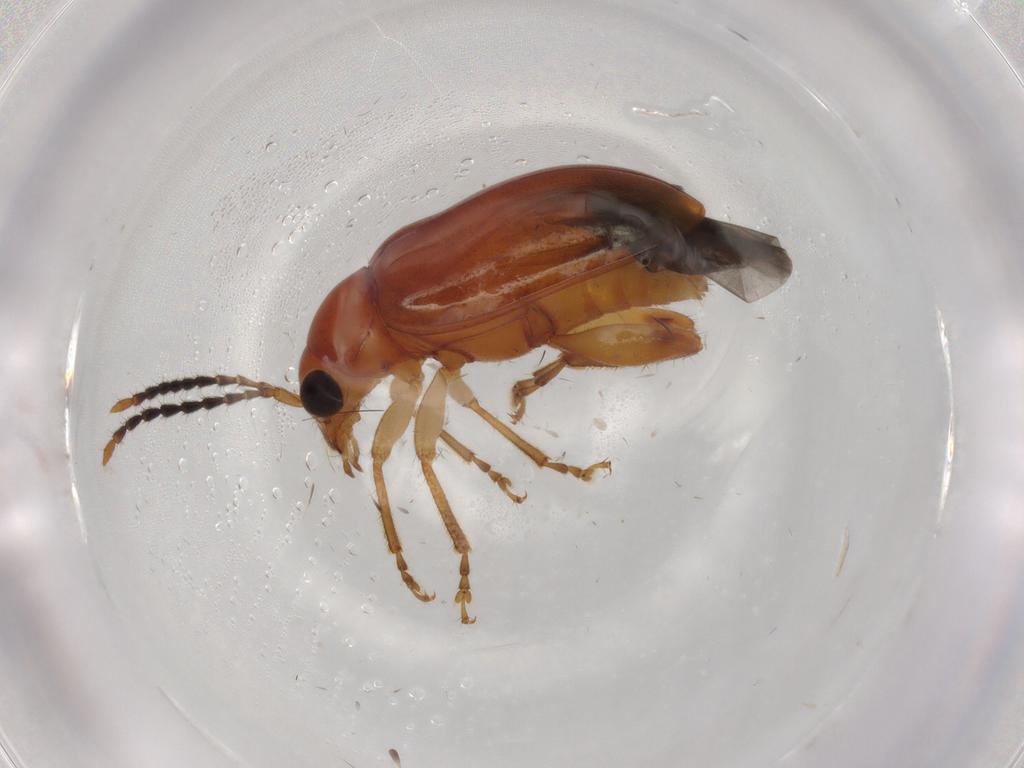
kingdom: Animalia
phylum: Arthropoda
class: Insecta
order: Coleoptera
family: Chrysomelidae
